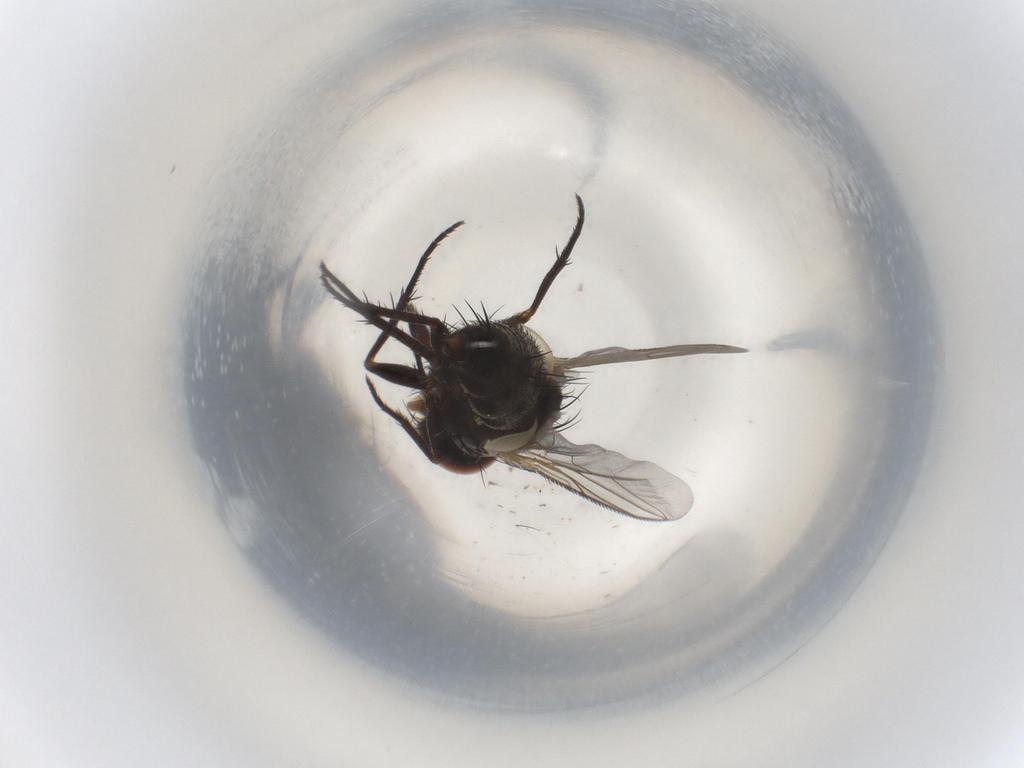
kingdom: Animalia
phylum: Arthropoda
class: Insecta
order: Diptera
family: Sarcophagidae
